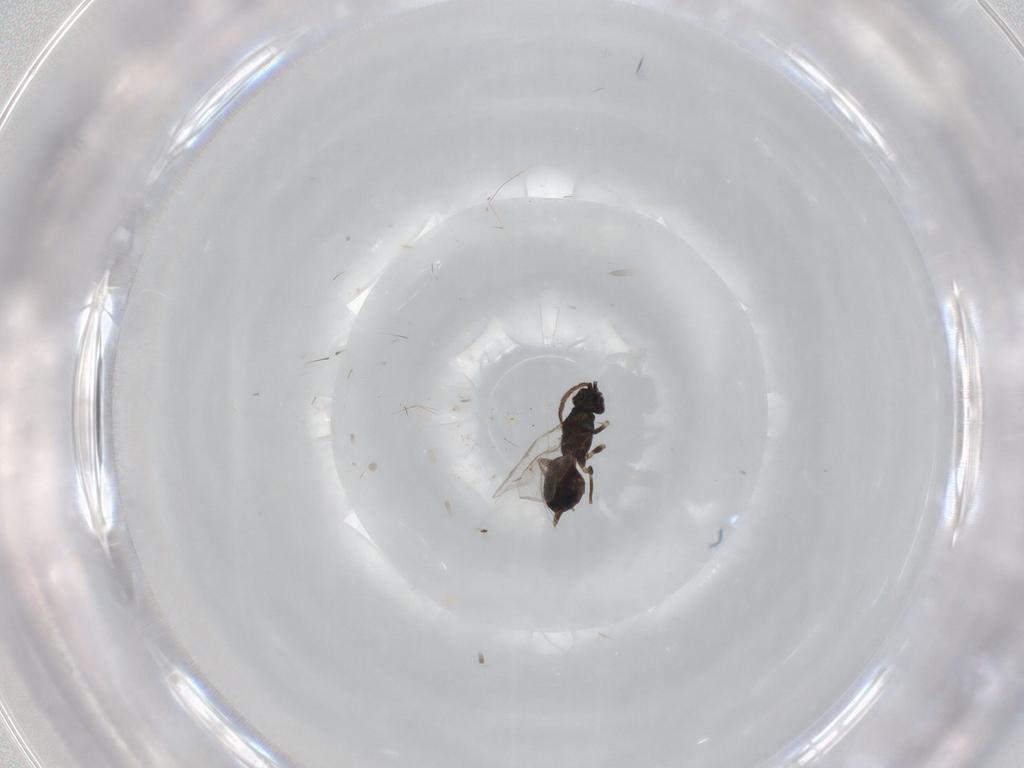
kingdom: Animalia
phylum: Arthropoda
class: Insecta
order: Hymenoptera
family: Eupelmidae
